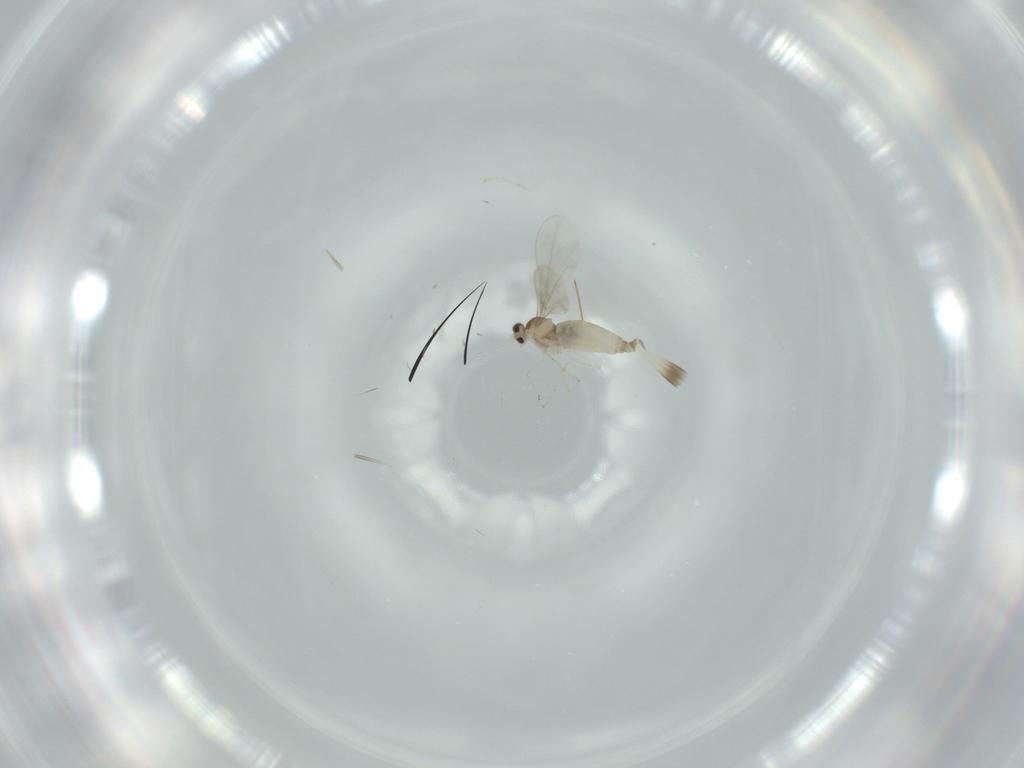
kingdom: Animalia
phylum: Arthropoda
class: Insecta
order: Diptera
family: Cecidomyiidae
